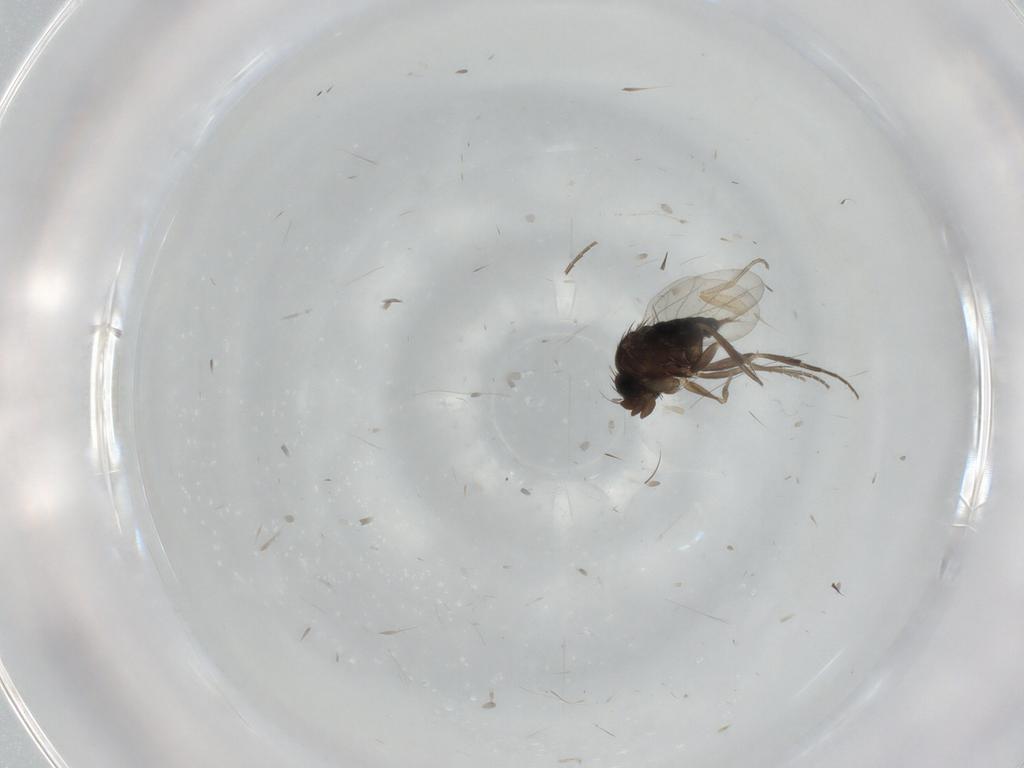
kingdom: Animalia
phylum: Arthropoda
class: Insecta
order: Diptera
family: Phoridae
